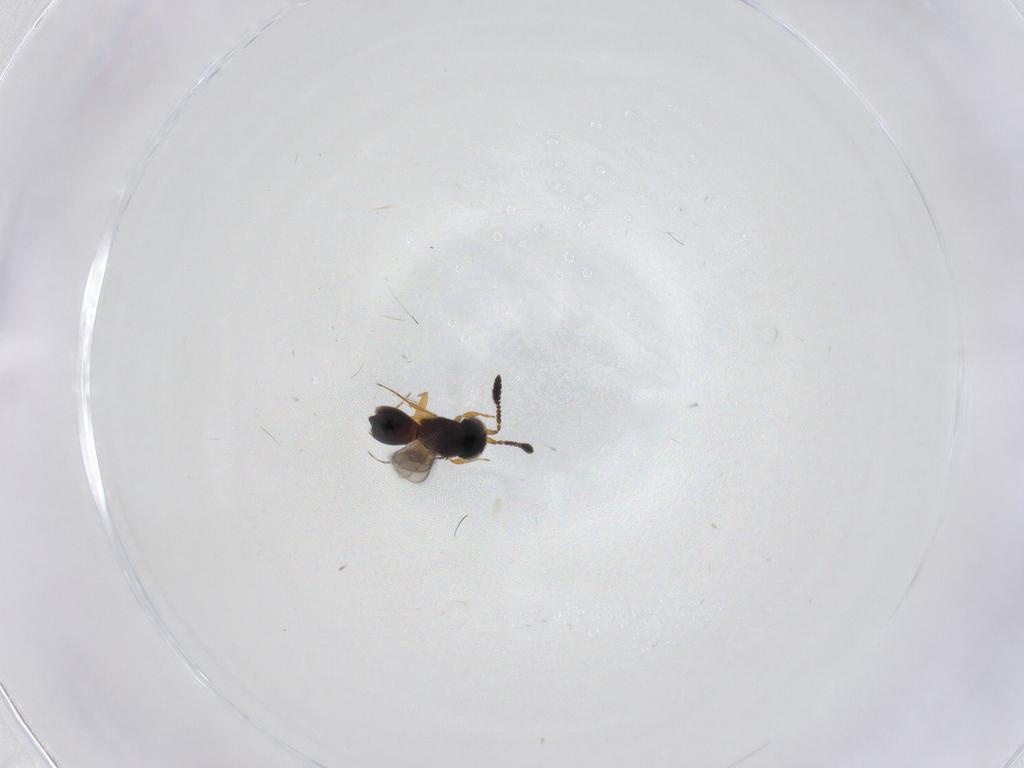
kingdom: Animalia
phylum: Arthropoda
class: Insecta
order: Hymenoptera
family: Scelionidae
